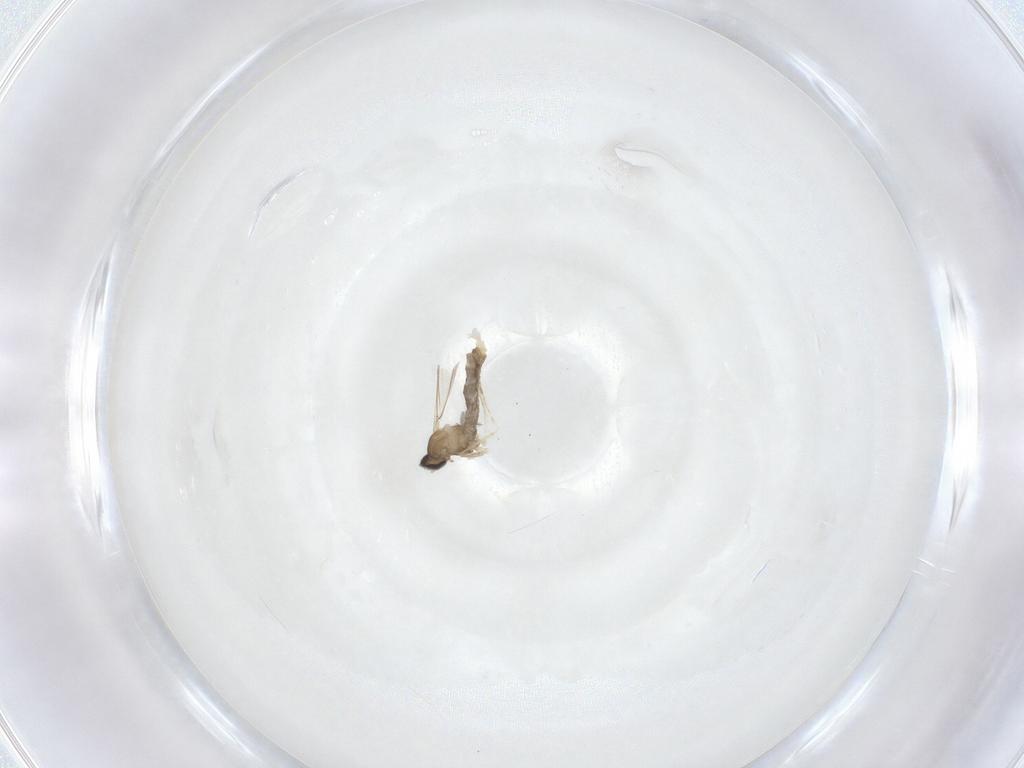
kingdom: Animalia
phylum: Arthropoda
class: Insecta
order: Diptera
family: Cecidomyiidae
